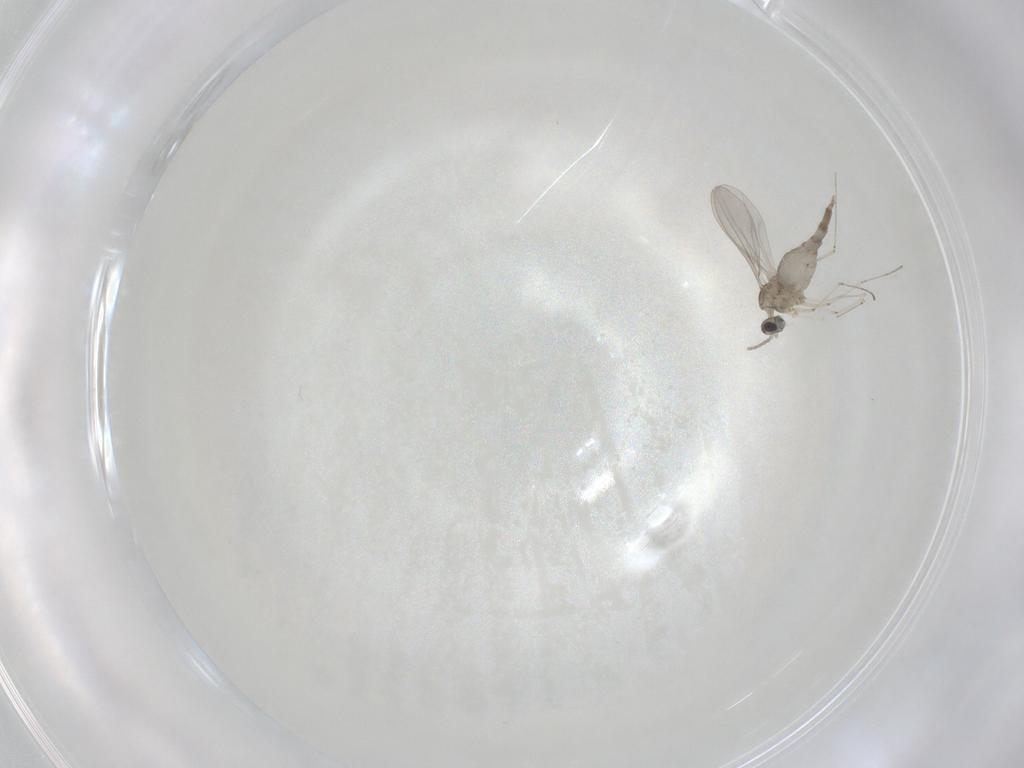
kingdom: Animalia
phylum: Arthropoda
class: Insecta
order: Diptera
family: Cecidomyiidae
